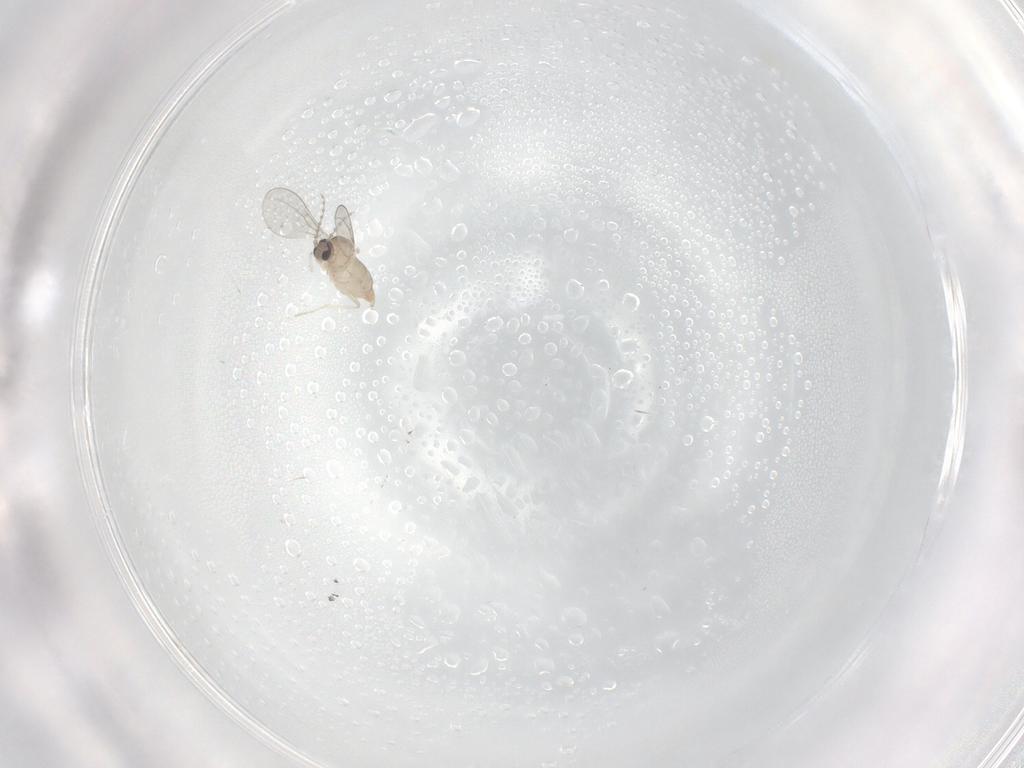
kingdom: Animalia
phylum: Arthropoda
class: Insecta
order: Diptera
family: Cecidomyiidae
